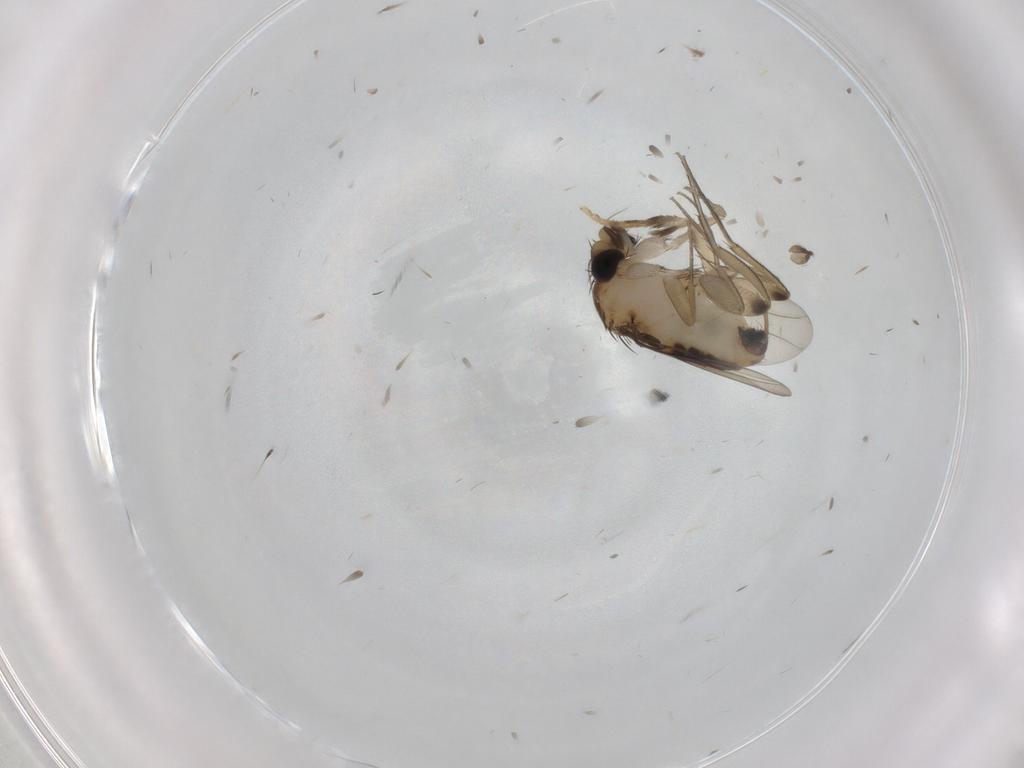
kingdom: Animalia
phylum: Arthropoda
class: Insecta
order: Diptera
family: Phoridae
